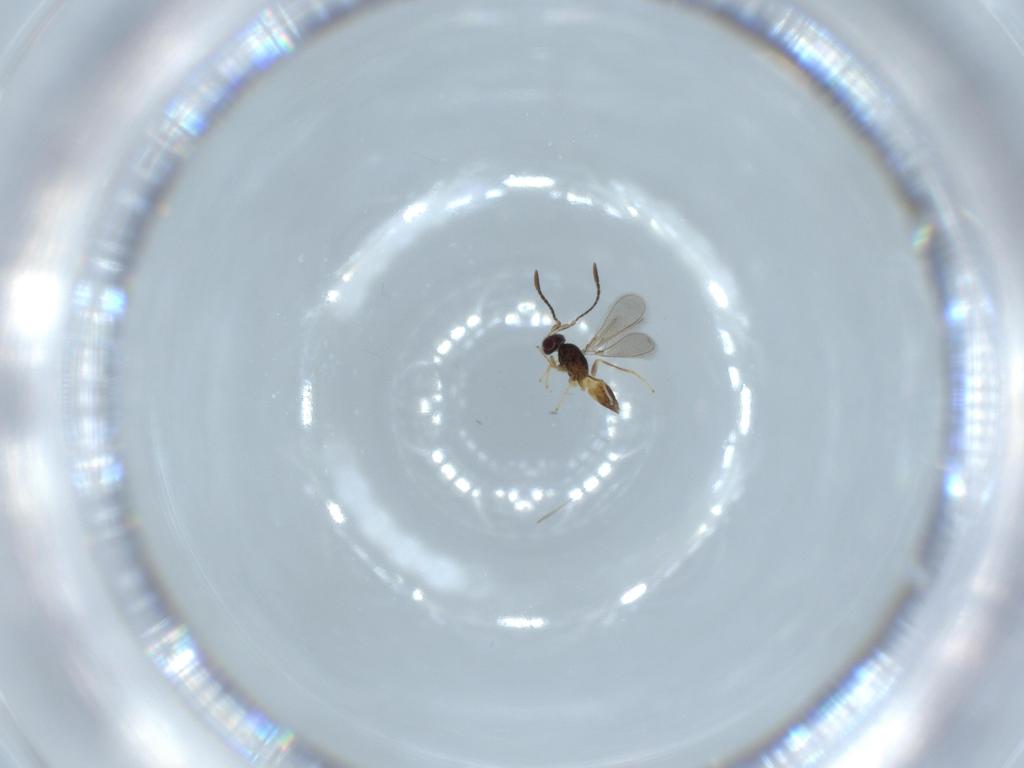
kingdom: Animalia
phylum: Arthropoda
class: Insecta
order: Hymenoptera
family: Mymaridae
